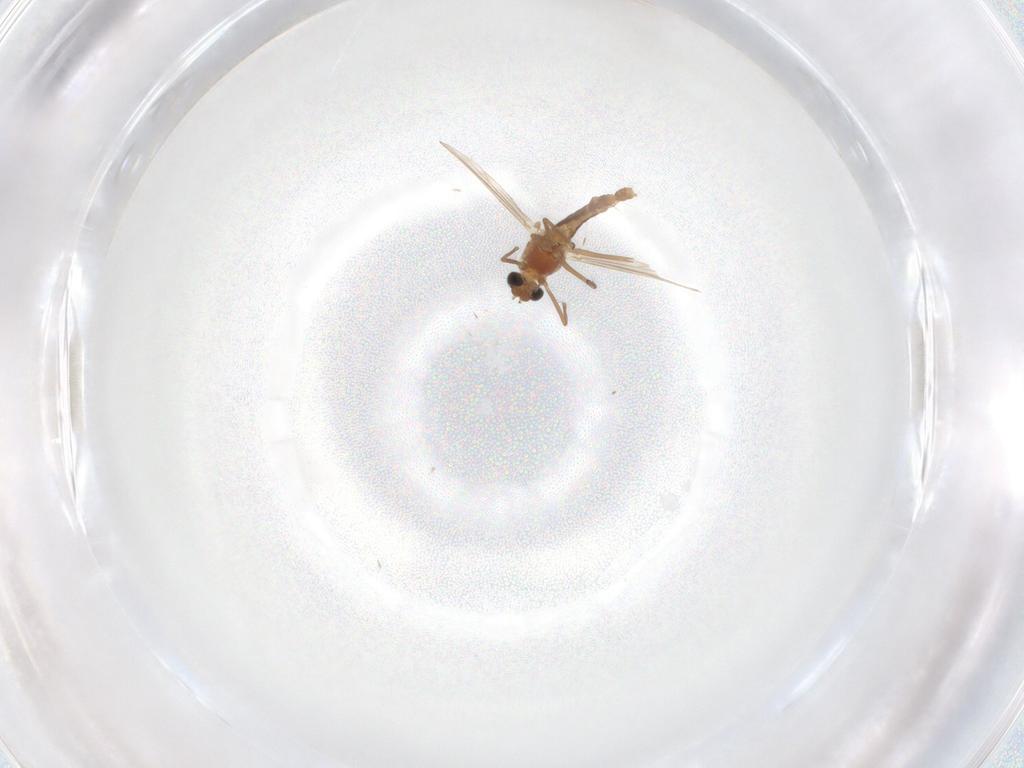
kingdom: Animalia
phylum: Arthropoda
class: Insecta
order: Diptera
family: Chironomidae
